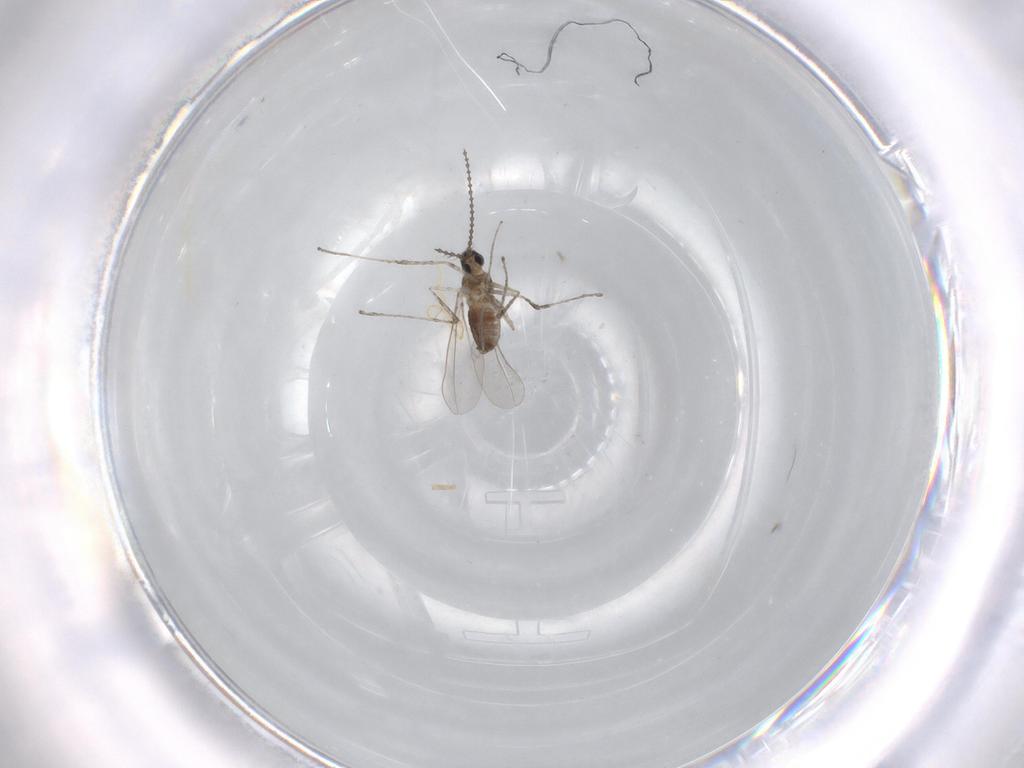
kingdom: Animalia
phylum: Arthropoda
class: Insecta
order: Diptera
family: Cecidomyiidae
